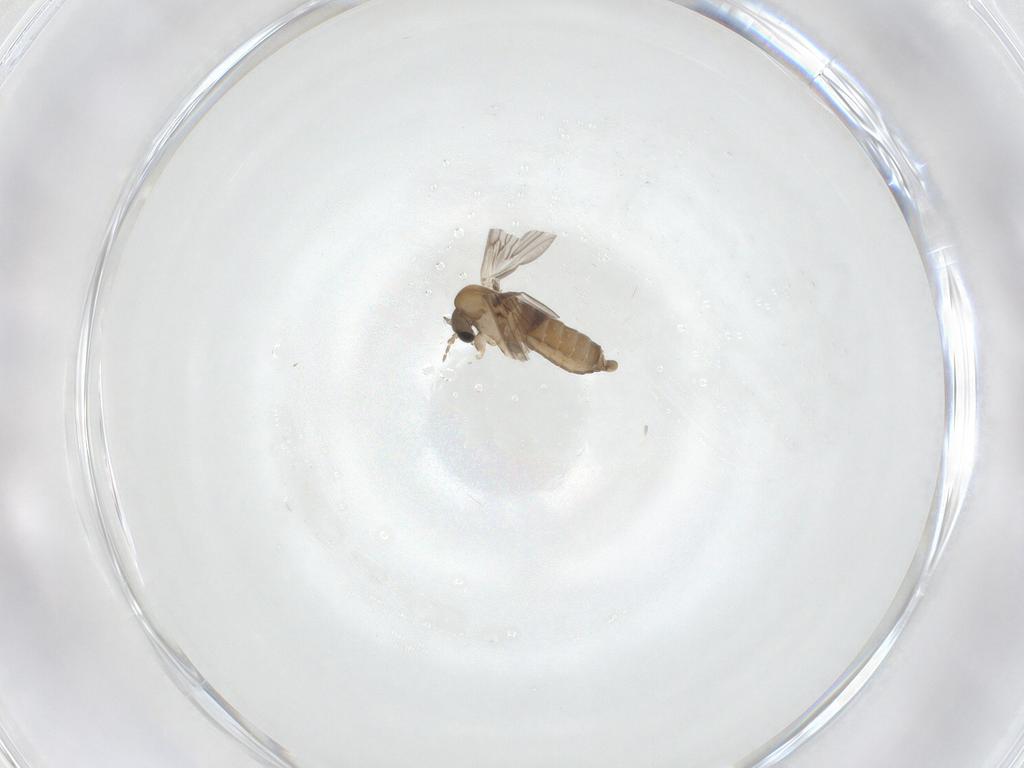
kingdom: Animalia
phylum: Arthropoda
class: Insecta
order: Diptera
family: Psychodidae
